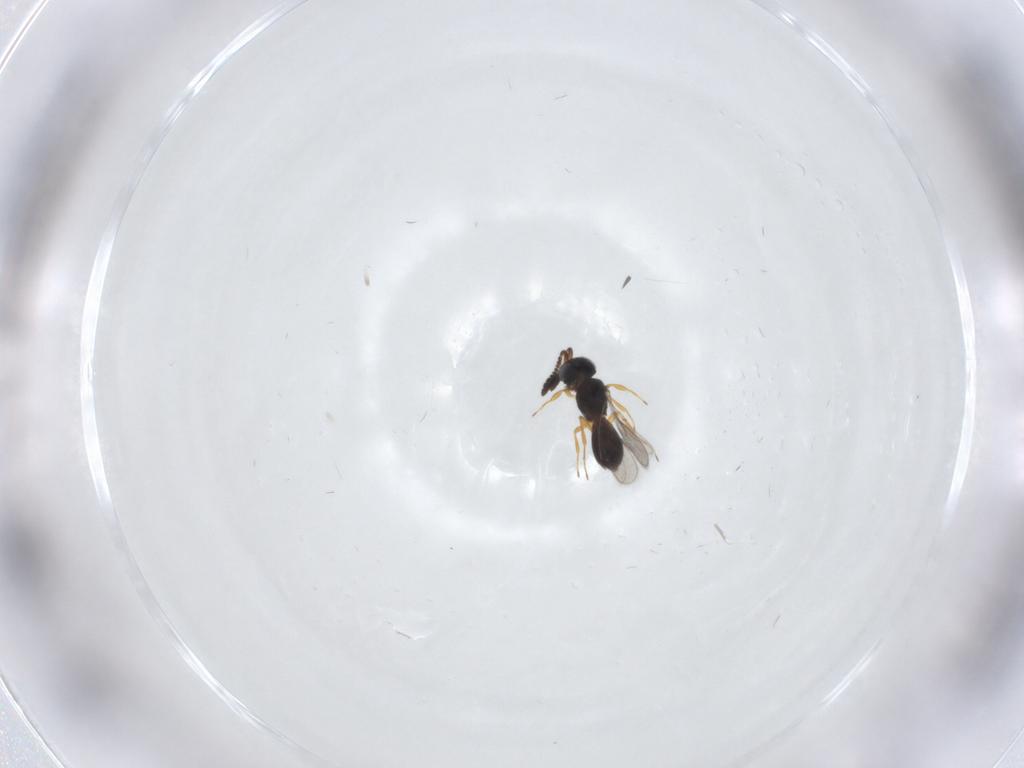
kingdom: Animalia
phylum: Arthropoda
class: Insecta
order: Hymenoptera
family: Scelionidae
